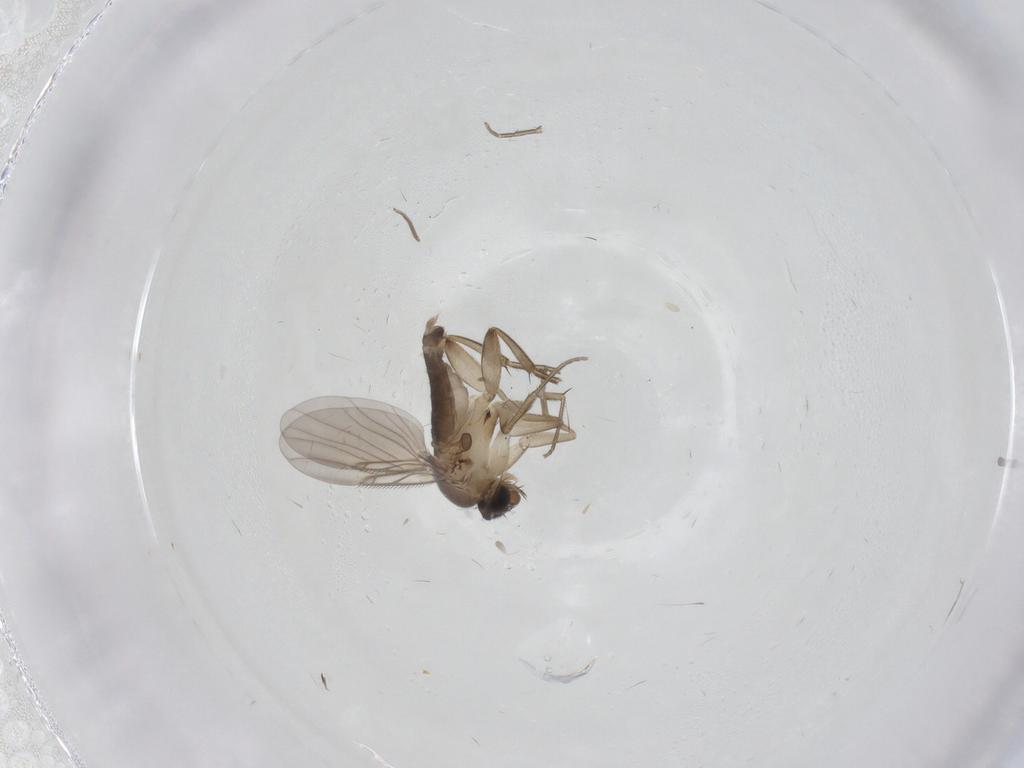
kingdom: Animalia
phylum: Arthropoda
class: Insecta
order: Diptera
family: Phoridae
